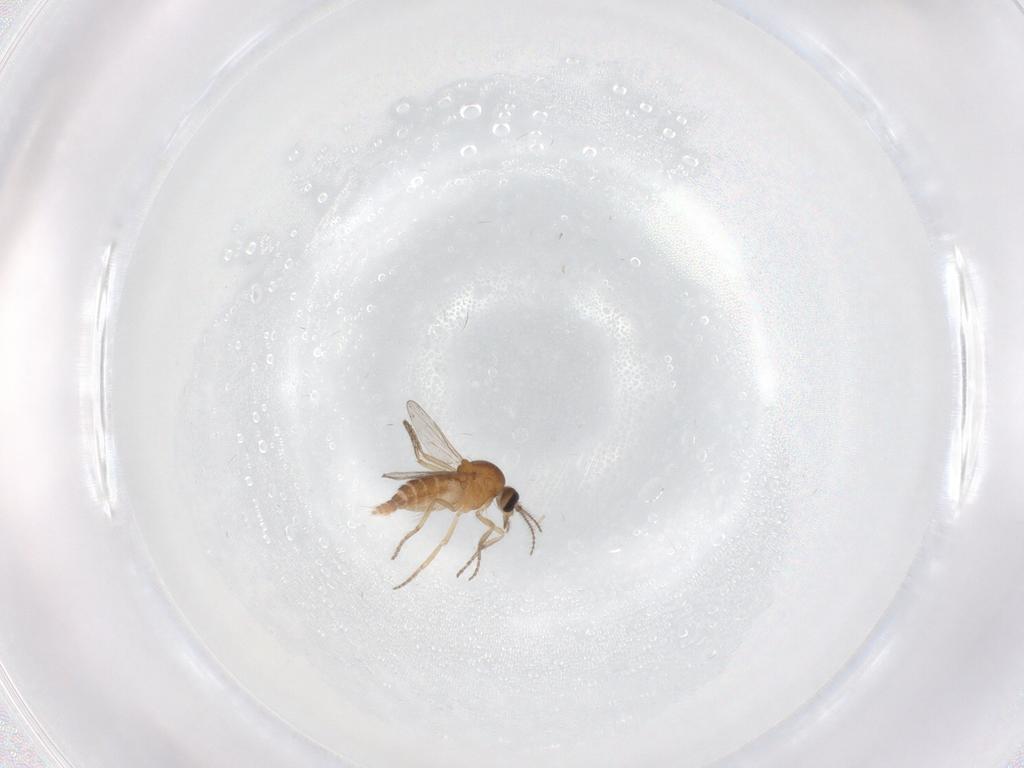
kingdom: Animalia
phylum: Arthropoda
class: Insecta
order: Diptera
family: Ceratopogonidae
